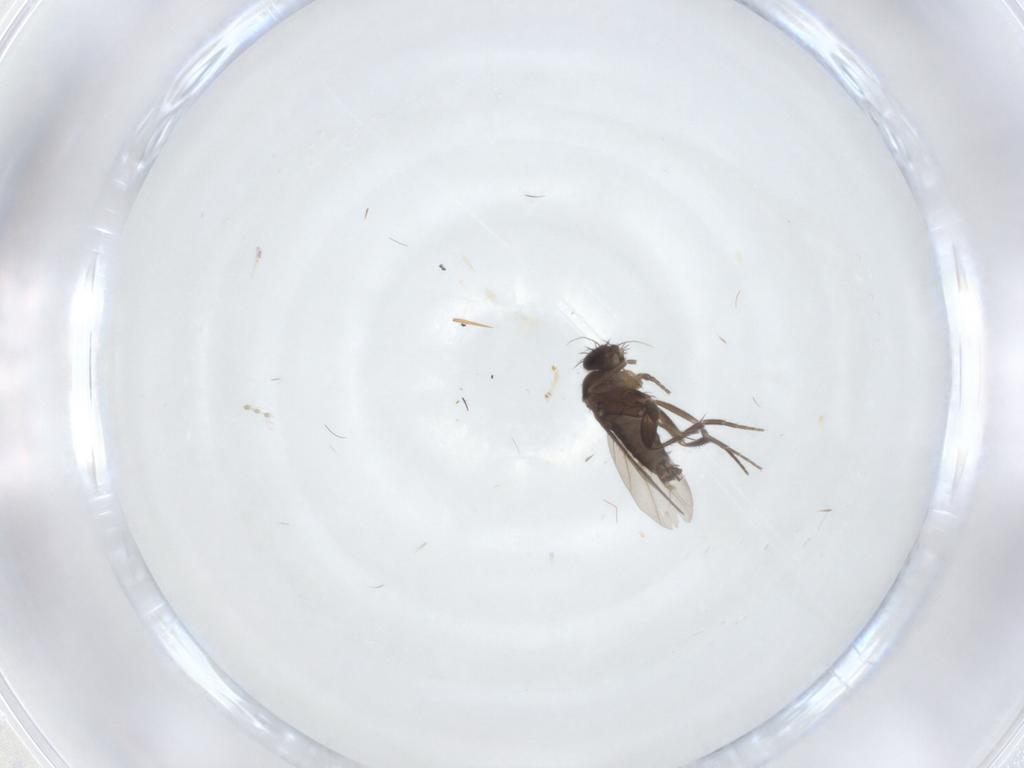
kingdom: Animalia
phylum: Arthropoda
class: Insecta
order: Diptera
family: Phoridae
